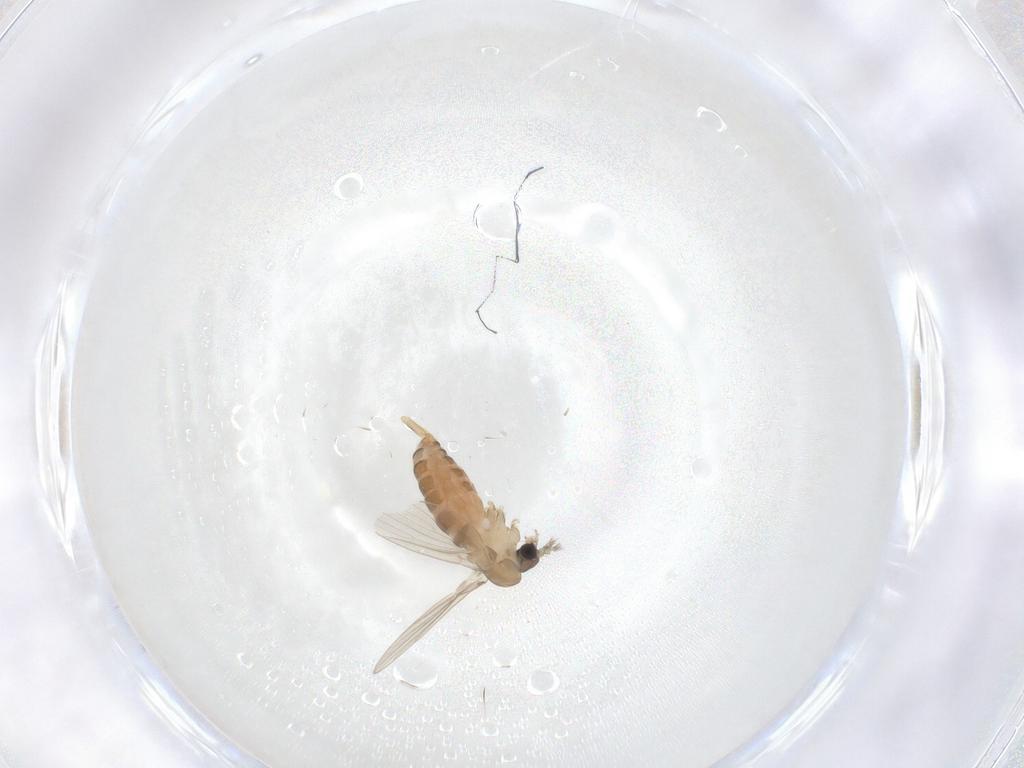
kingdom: Animalia
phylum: Arthropoda
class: Insecta
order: Diptera
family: Psychodidae
